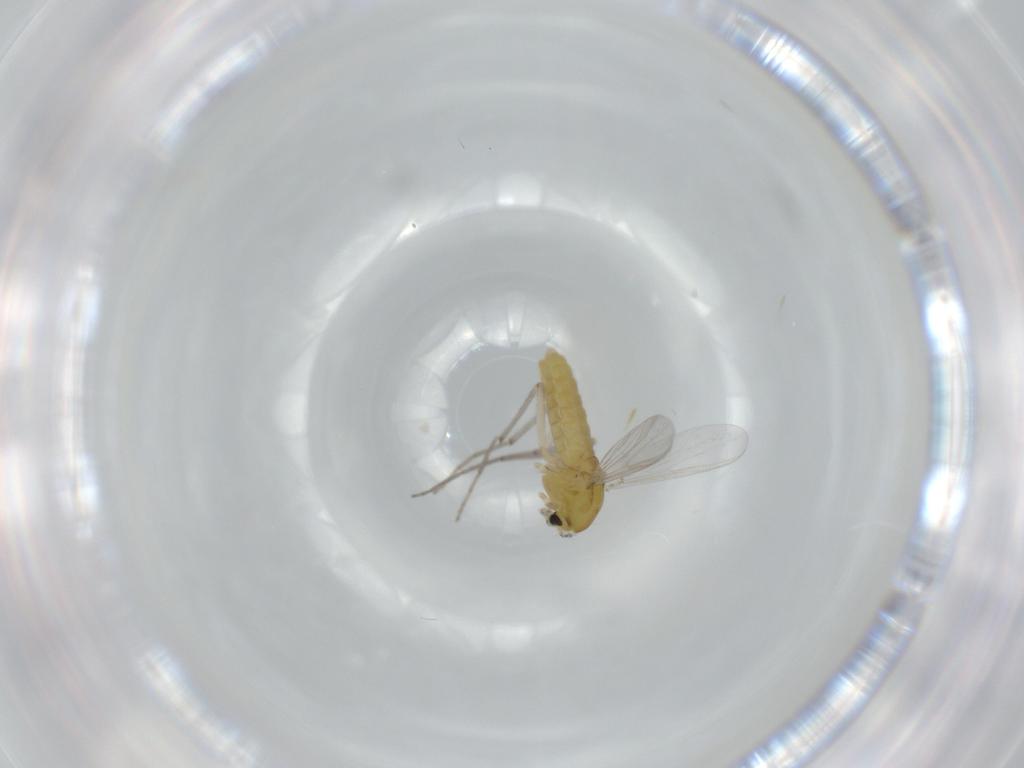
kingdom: Animalia
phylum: Arthropoda
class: Insecta
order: Diptera
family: Chironomidae
